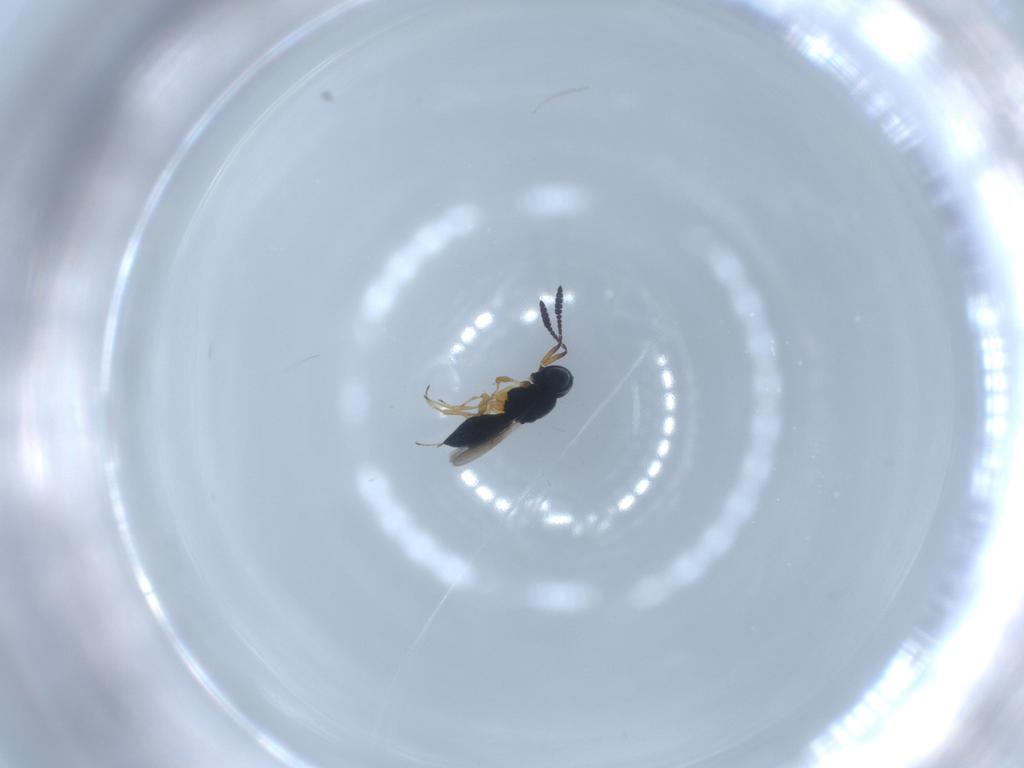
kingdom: Animalia
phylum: Arthropoda
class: Insecta
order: Hymenoptera
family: Scelionidae
